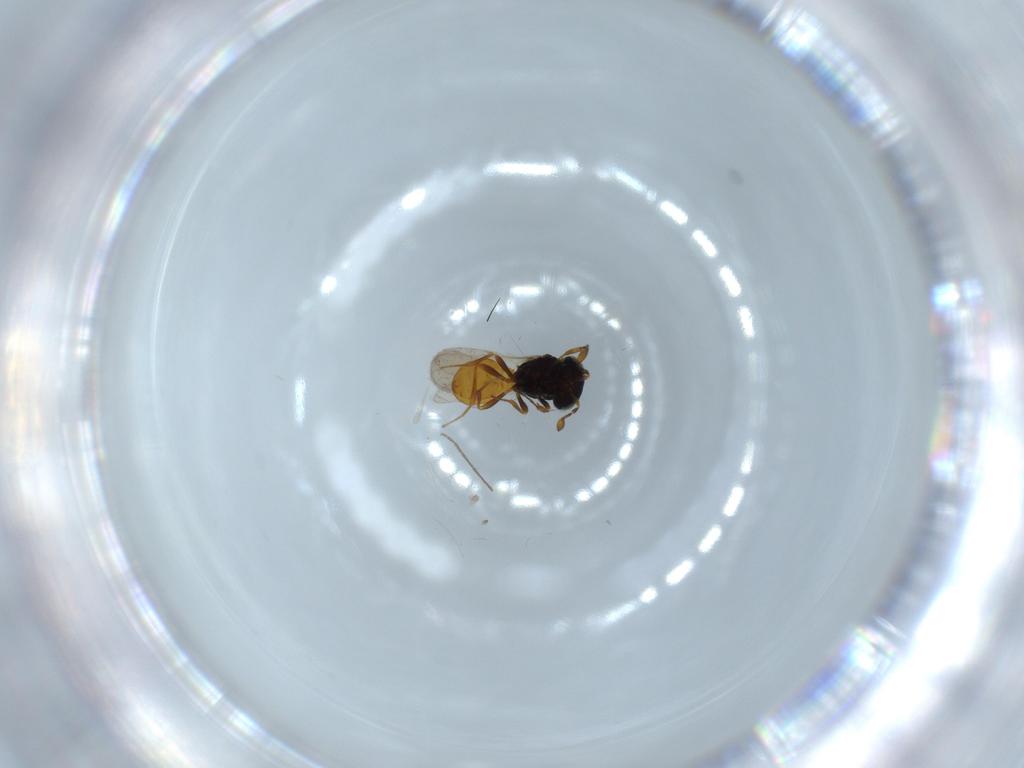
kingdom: Animalia
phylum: Arthropoda
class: Insecta
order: Hymenoptera
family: Scelionidae
